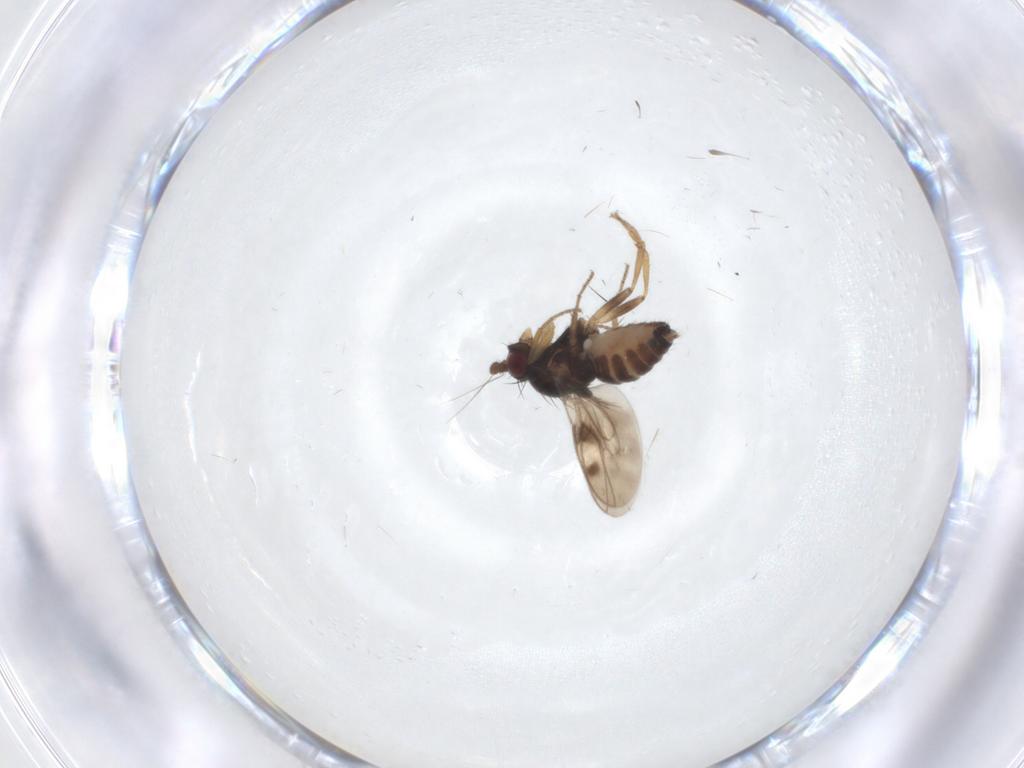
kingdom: Animalia
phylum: Arthropoda
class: Insecta
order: Diptera
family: Sphaeroceridae
